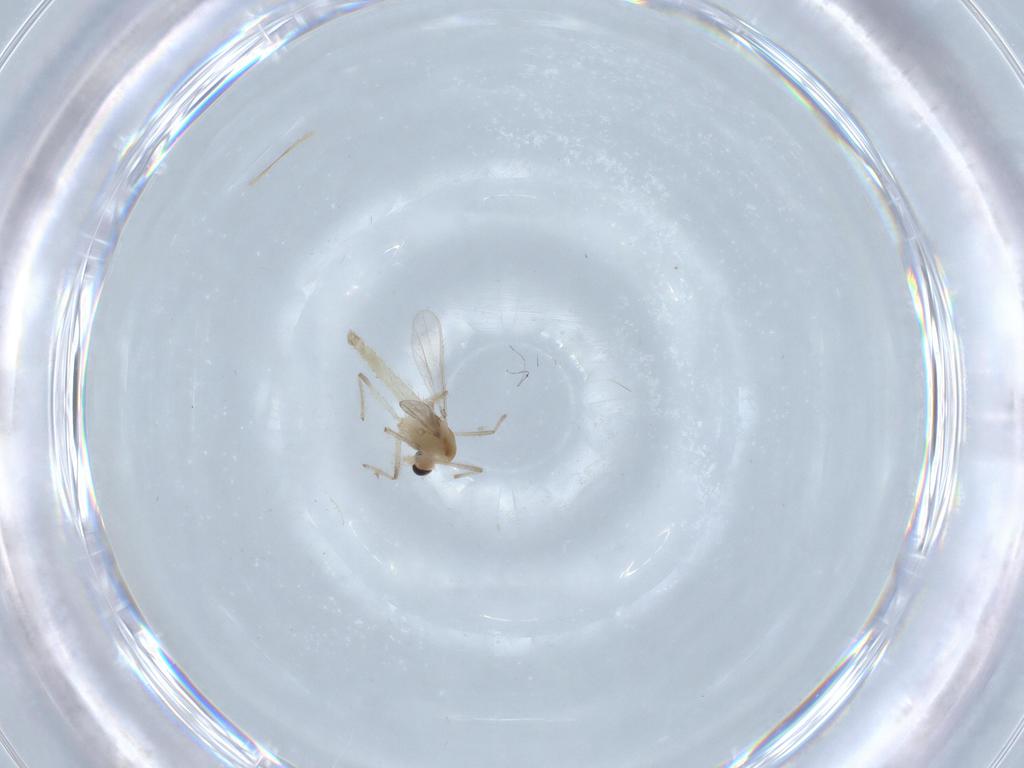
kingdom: Animalia
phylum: Arthropoda
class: Insecta
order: Diptera
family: Chironomidae
